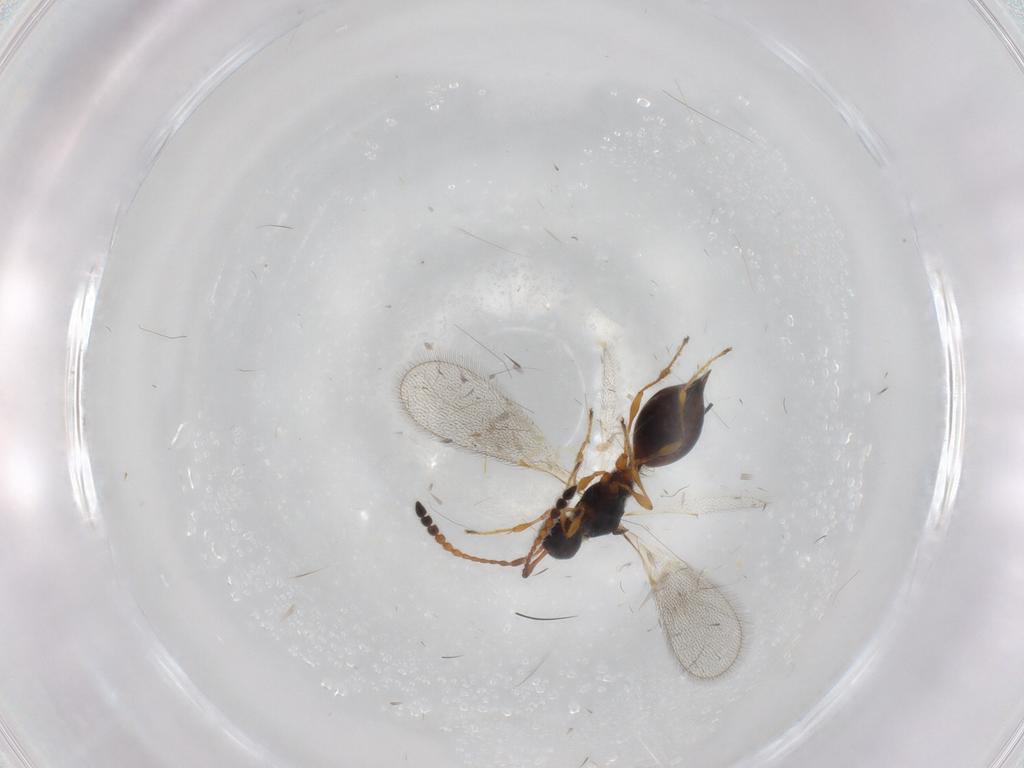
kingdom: Animalia
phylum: Arthropoda
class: Insecta
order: Hymenoptera
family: Diapriidae
